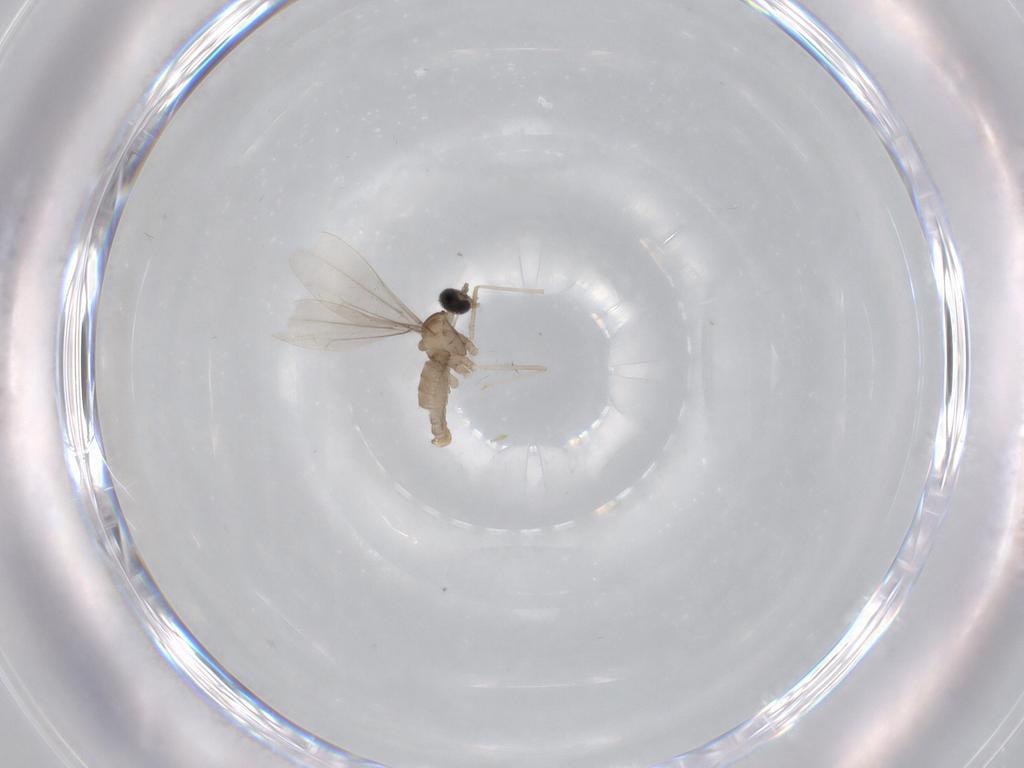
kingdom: Animalia
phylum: Arthropoda
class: Insecta
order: Diptera
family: Cecidomyiidae
